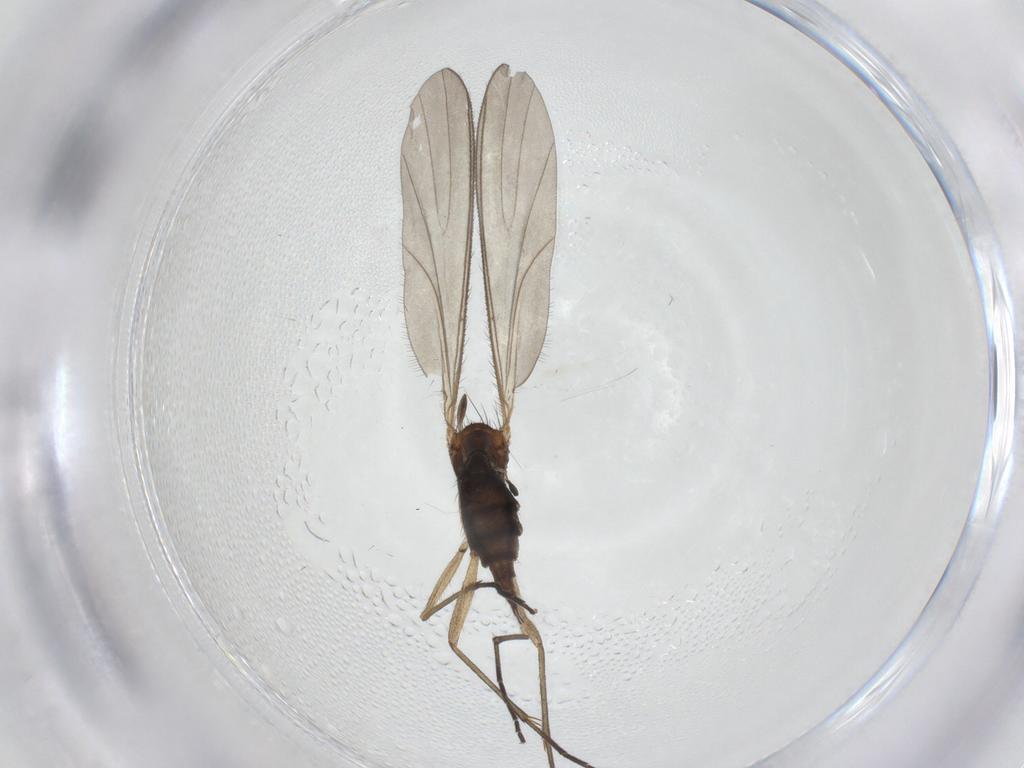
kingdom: Animalia
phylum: Arthropoda
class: Insecta
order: Diptera
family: Sciaridae
